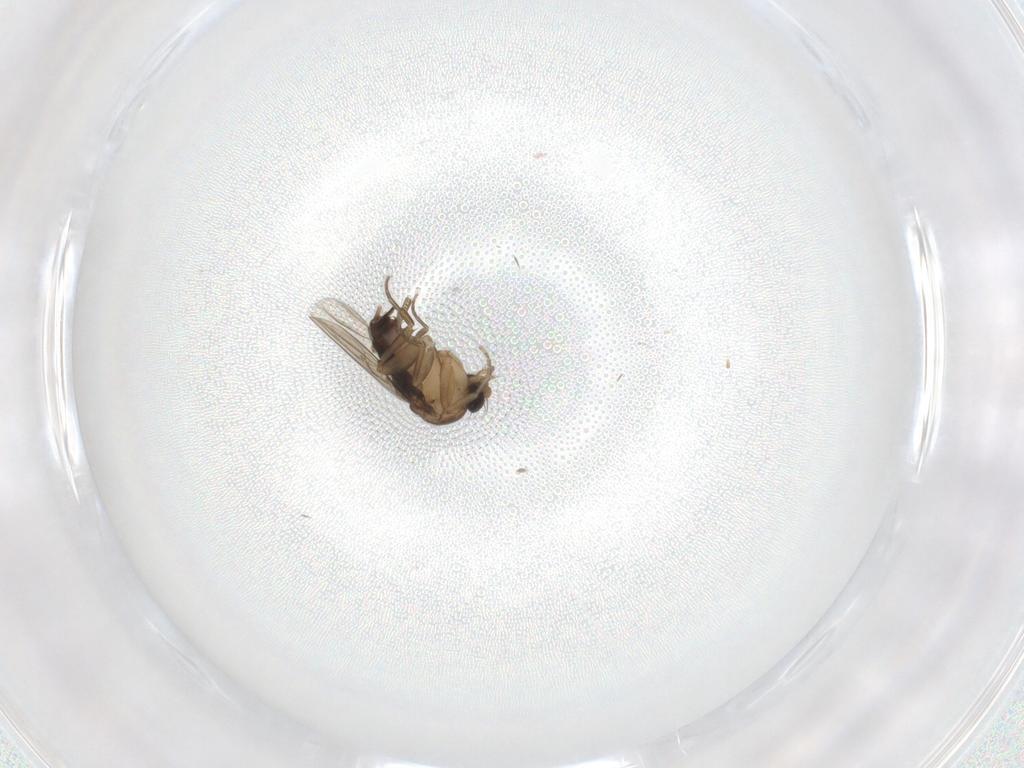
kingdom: Animalia
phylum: Arthropoda
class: Insecta
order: Diptera
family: Phoridae
